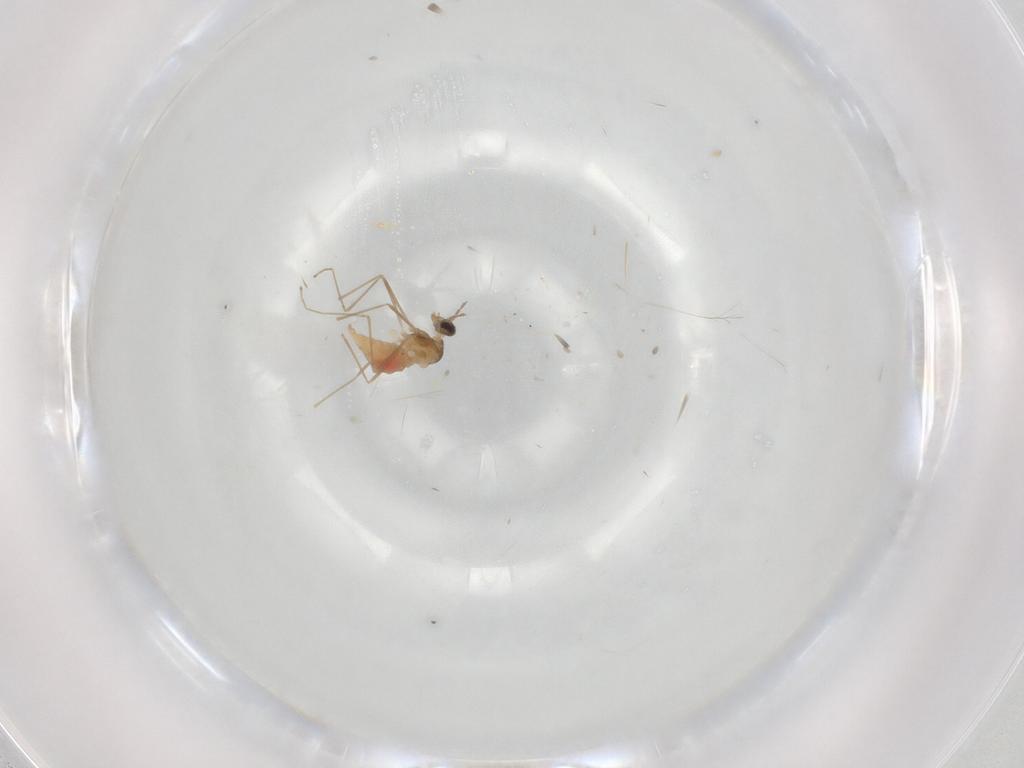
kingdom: Animalia
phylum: Arthropoda
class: Insecta
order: Diptera
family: Cecidomyiidae
